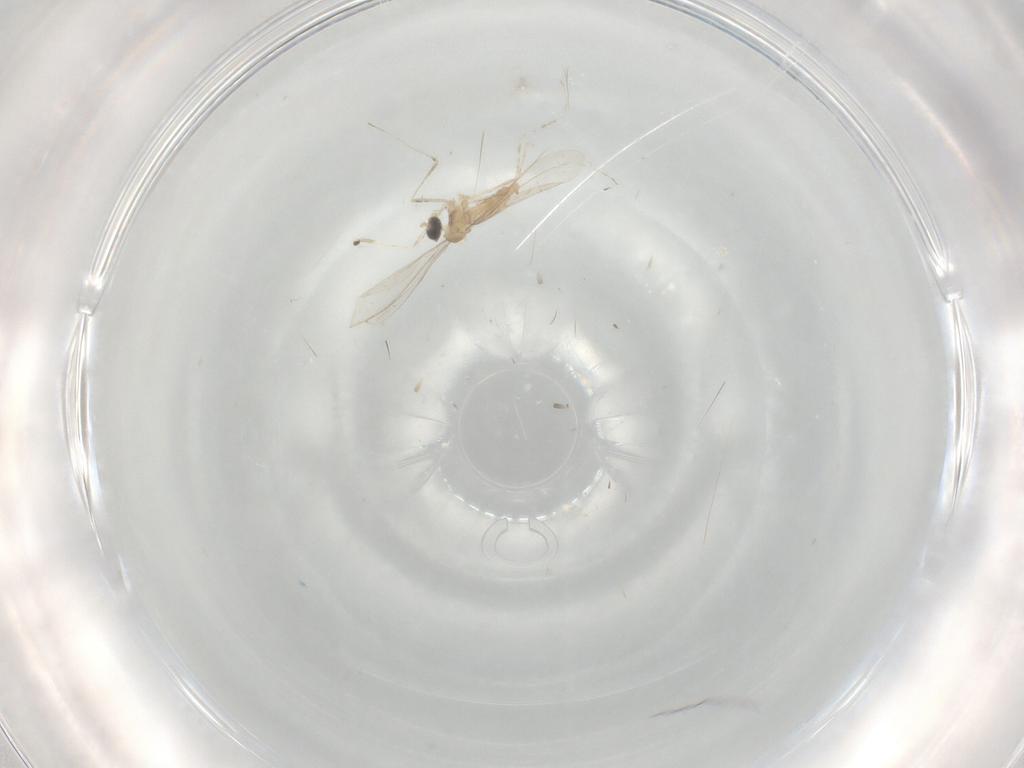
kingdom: Animalia
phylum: Arthropoda
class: Insecta
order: Diptera
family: Cecidomyiidae
